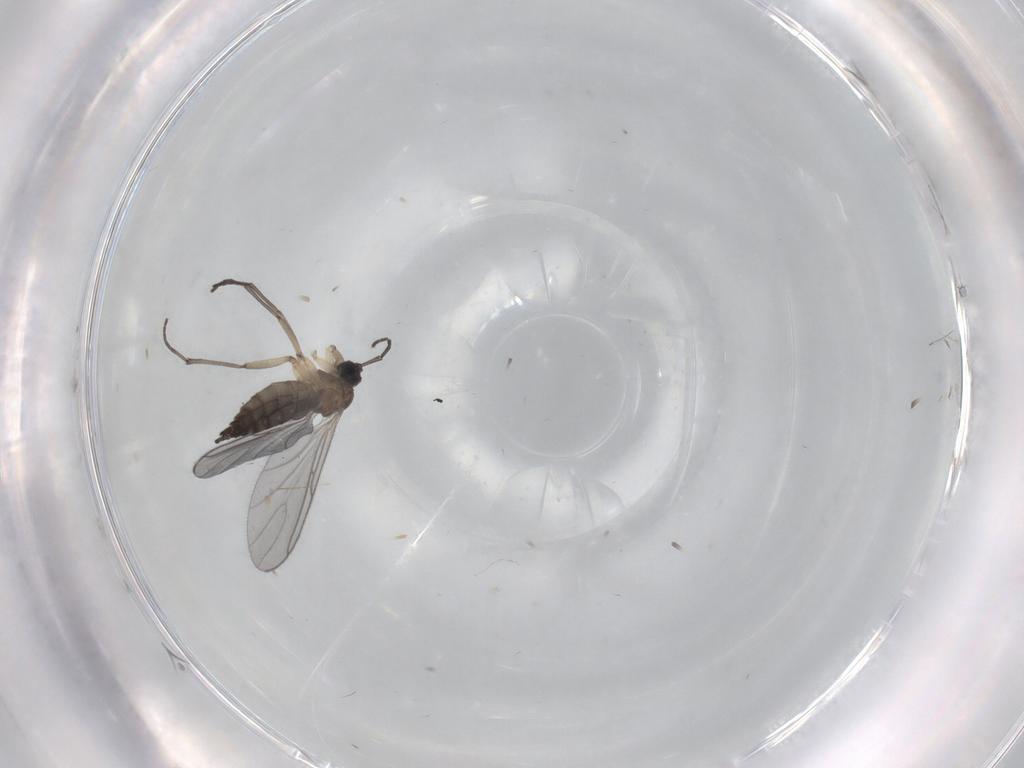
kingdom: Animalia
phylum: Arthropoda
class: Insecta
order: Diptera
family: Sciaridae
